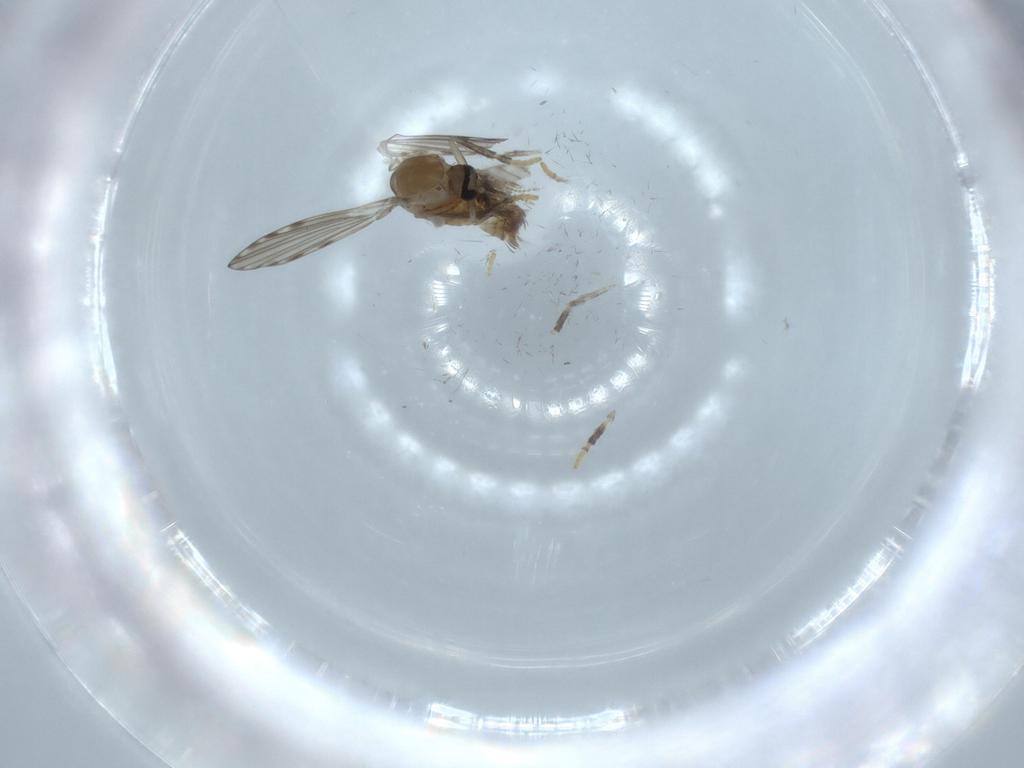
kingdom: Animalia
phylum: Arthropoda
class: Insecta
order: Diptera
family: Psychodidae
